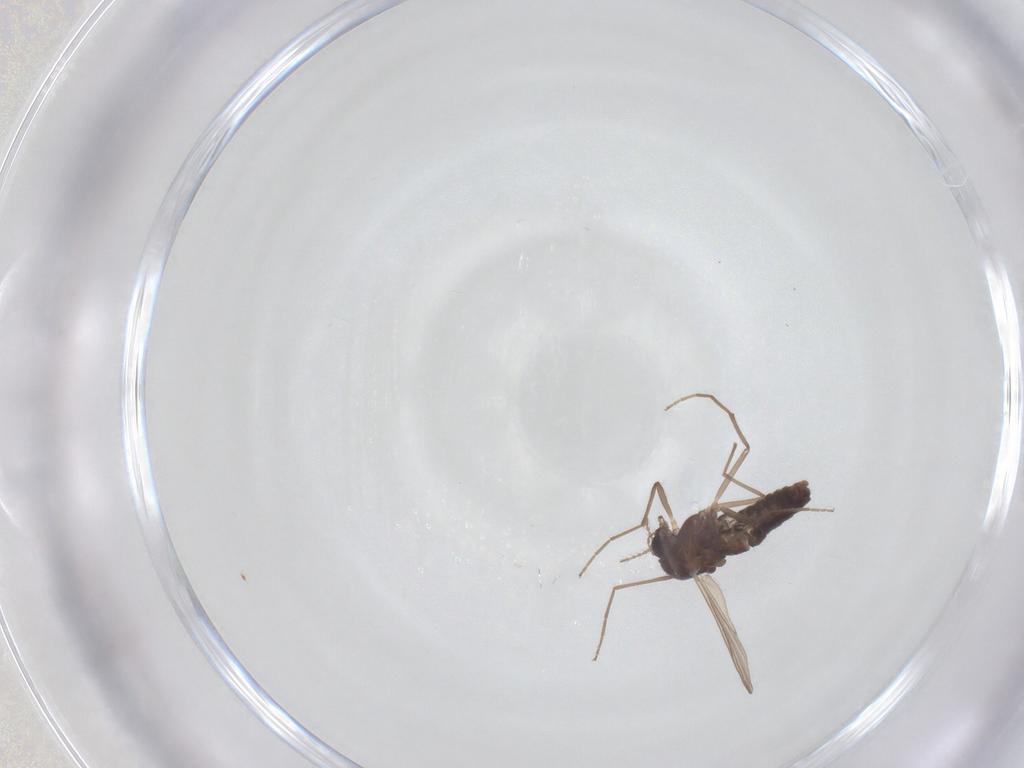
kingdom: Animalia
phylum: Arthropoda
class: Insecta
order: Diptera
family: Chironomidae
